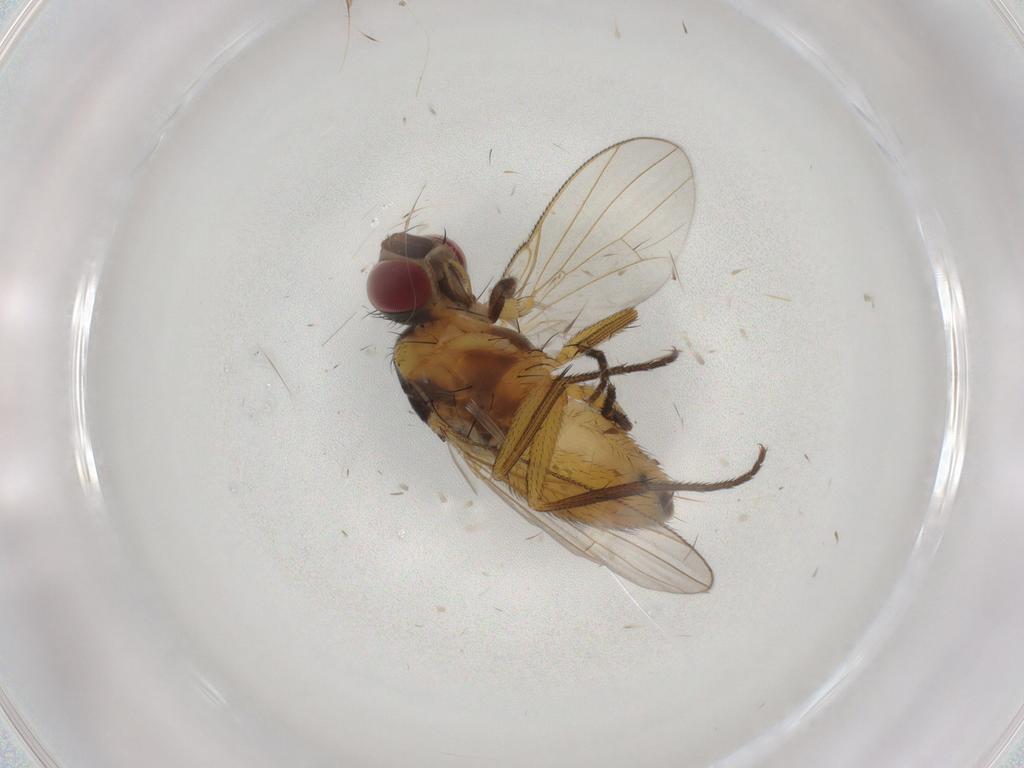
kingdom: Animalia
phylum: Arthropoda
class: Insecta
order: Diptera
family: Muscidae
